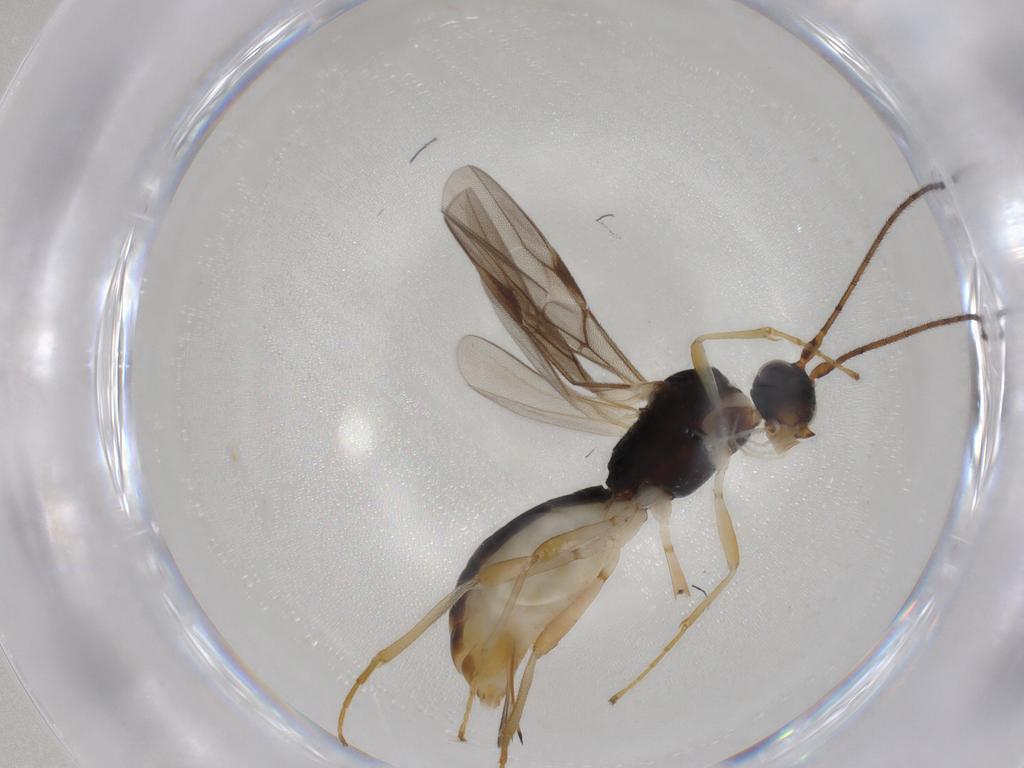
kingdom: Animalia
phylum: Arthropoda
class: Insecta
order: Hymenoptera
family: Braconidae
